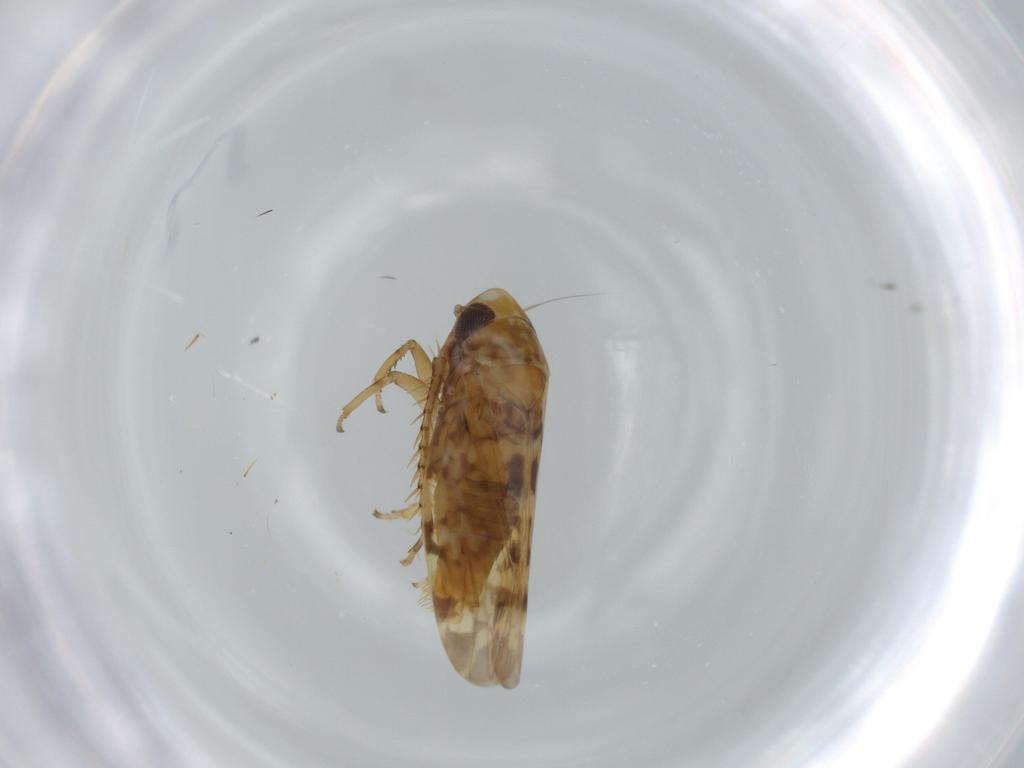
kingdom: Animalia
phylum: Arthropoda
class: Insecta
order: Hemiptera
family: Cicadellidae
